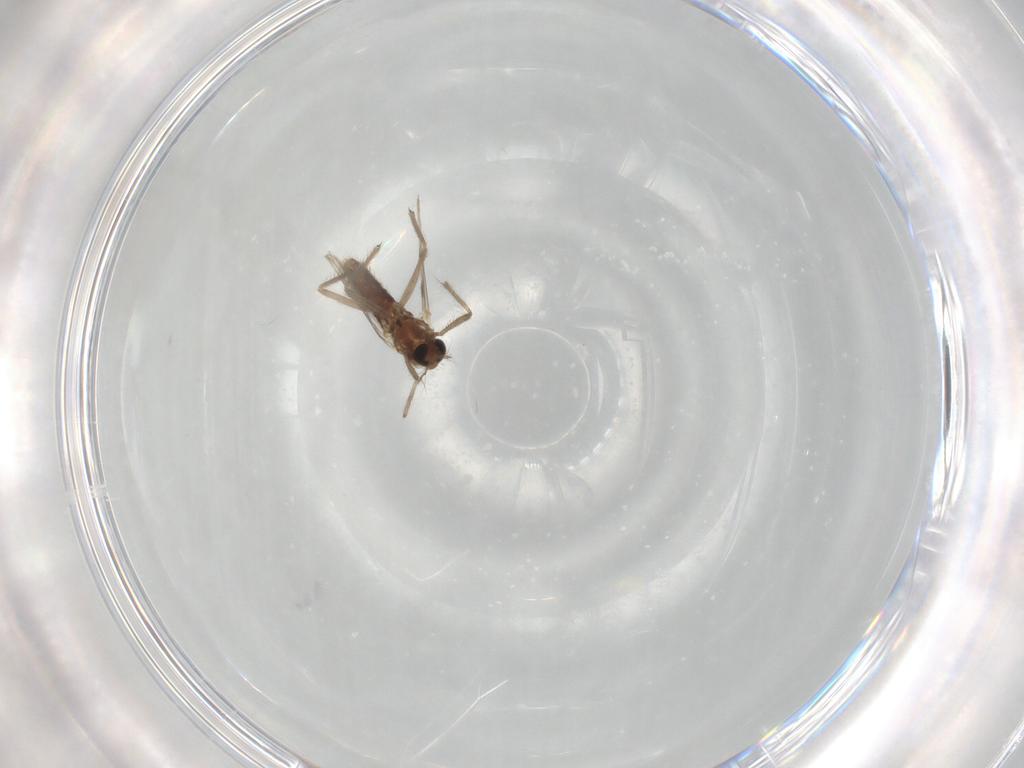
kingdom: Animalia
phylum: Arthropoda
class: Insecta
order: Diptera
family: Chironomidae
